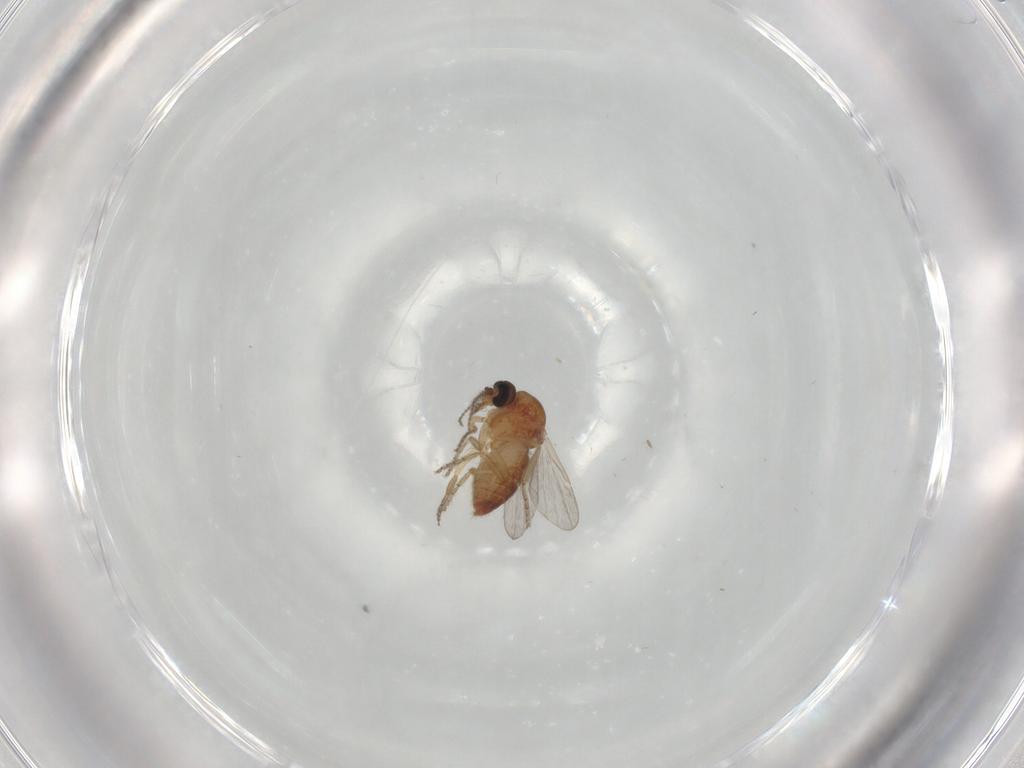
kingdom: Animalia
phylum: Arthropoda
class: Insecta
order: Diptera
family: Ceratopogonidae
